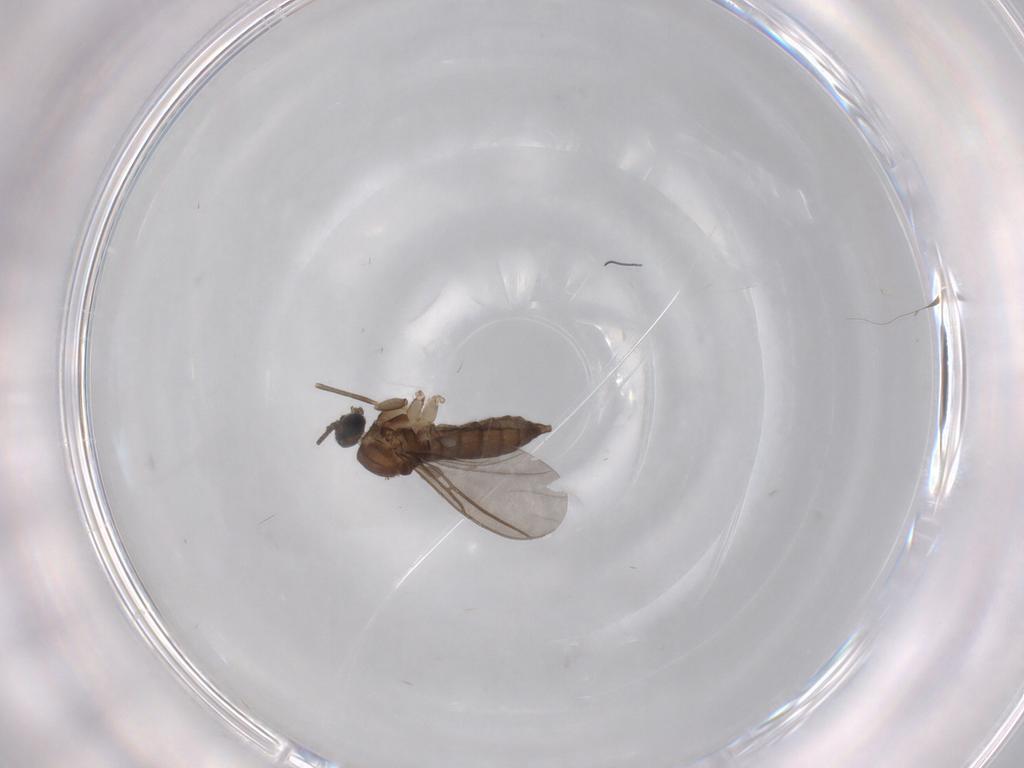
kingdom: Animalia
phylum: Arthropoda
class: Insecta
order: Diptera
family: Sciaridae
